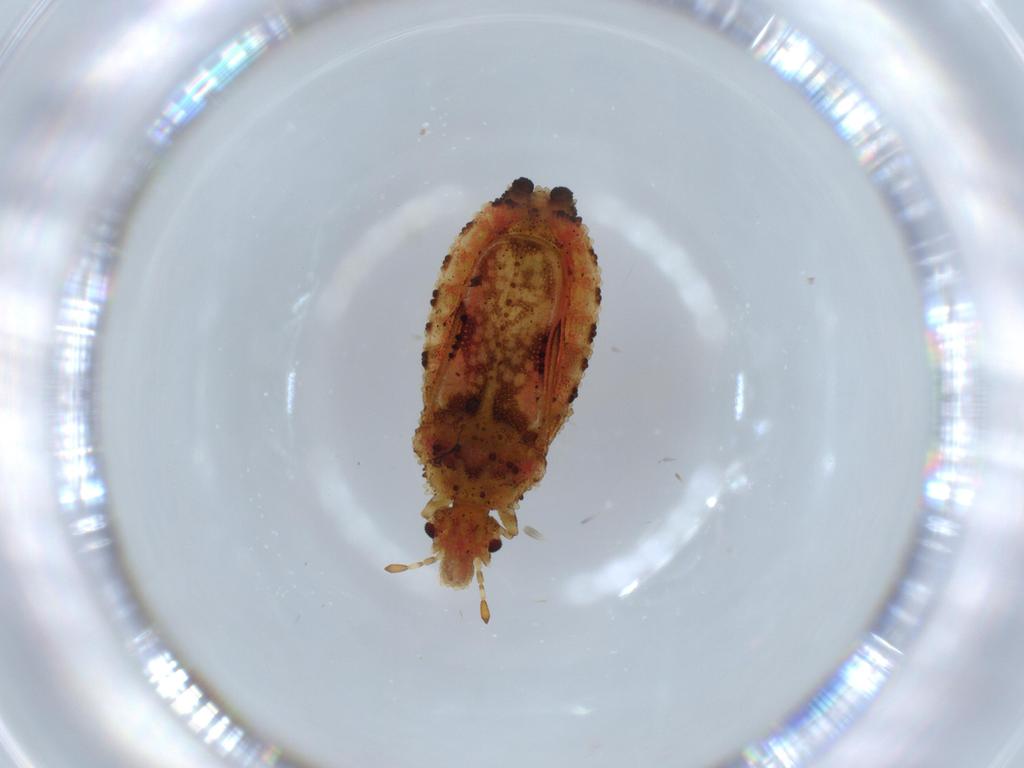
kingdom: Animalia
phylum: Arthropoda
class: Insecta
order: Hemiptera
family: Aradidae
